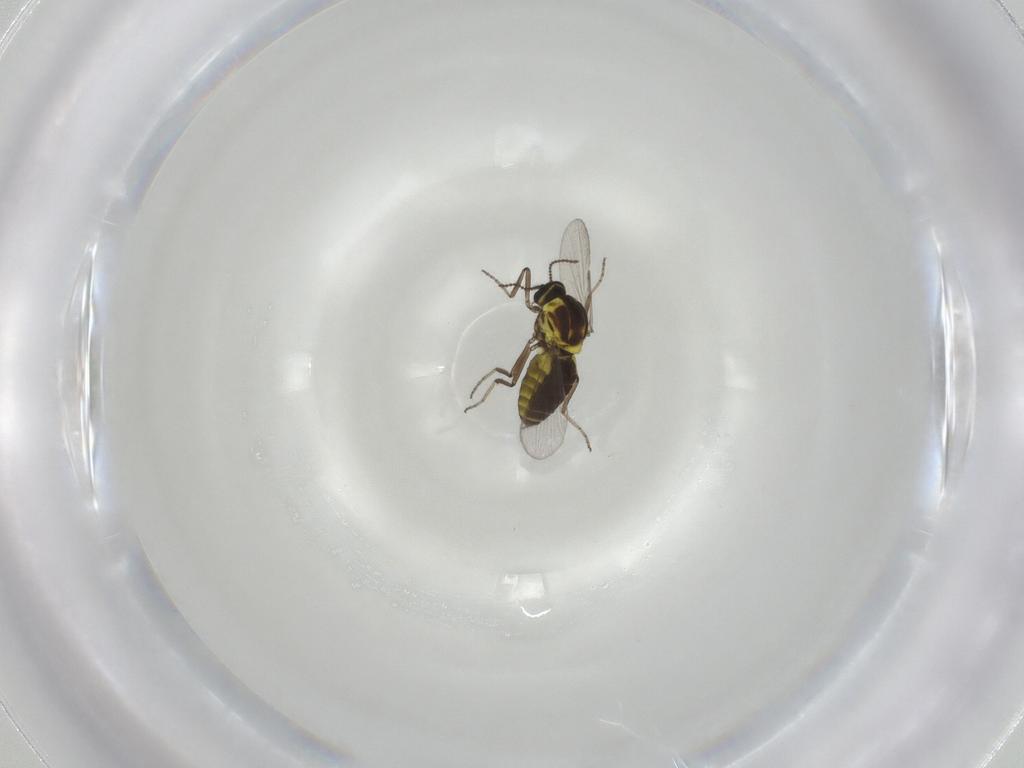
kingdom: Animalia
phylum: Arthropoda
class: Insecta
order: Diptera
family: Ceratopogonidae
